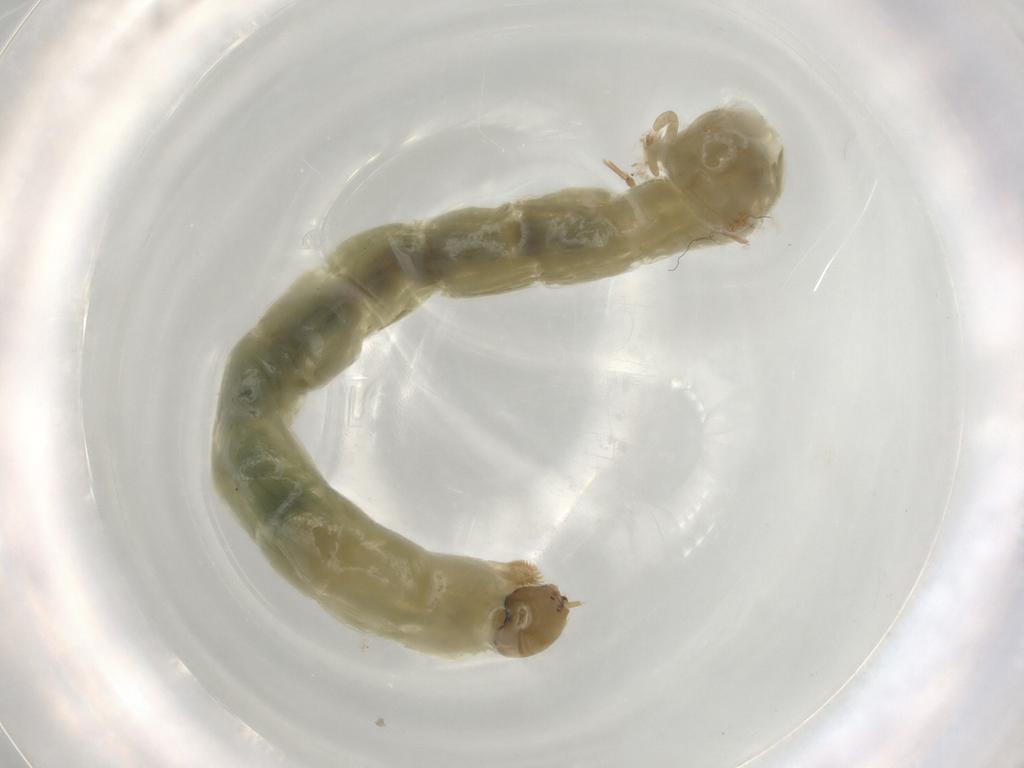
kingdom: Animalia
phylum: Arthropoda
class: Insecta
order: Diptera
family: Chironomidae
